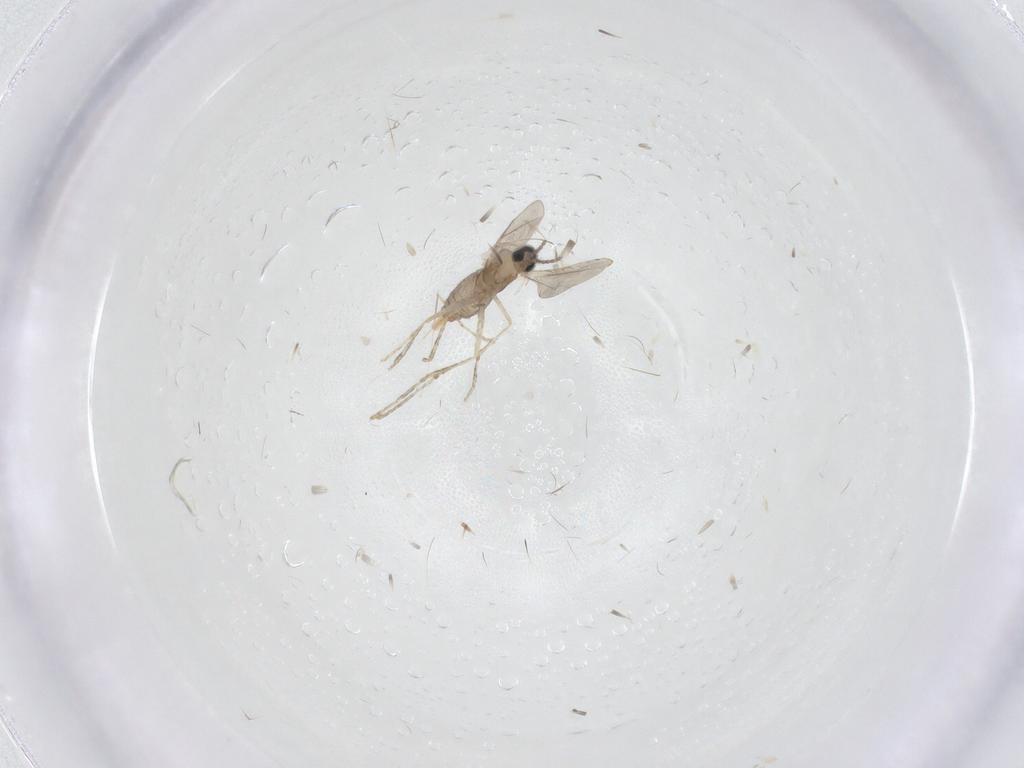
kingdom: Animalia
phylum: Arthropoda
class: Insecta
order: Diptera
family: Cecidomyiidae
